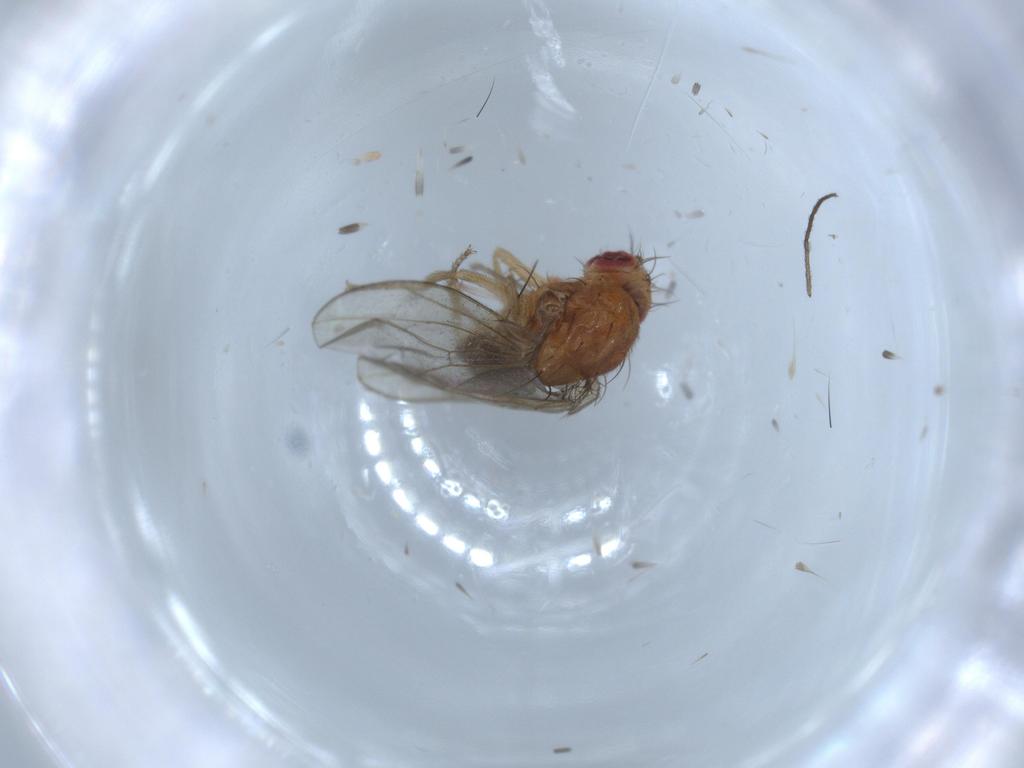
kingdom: Animalia
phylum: Arthropoda
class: Insecta
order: Diptera
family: Drosophilidae
